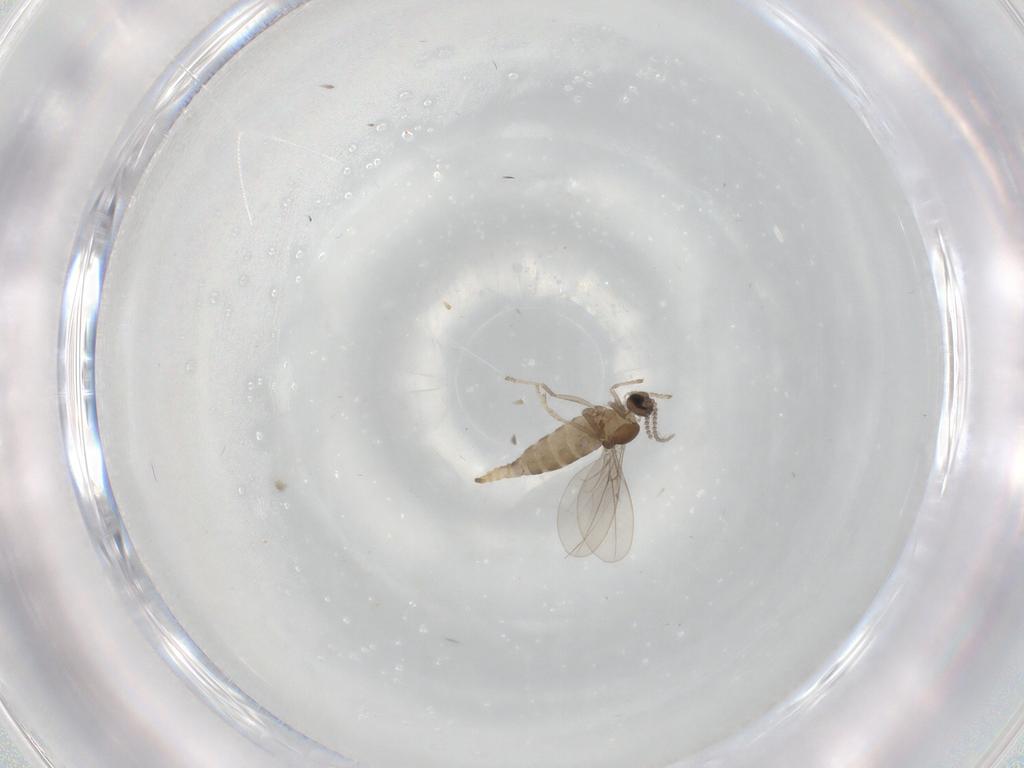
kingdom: Animalia
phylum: Arthropoda
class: Insecta
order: Diptera
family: Cecidomyiidae
